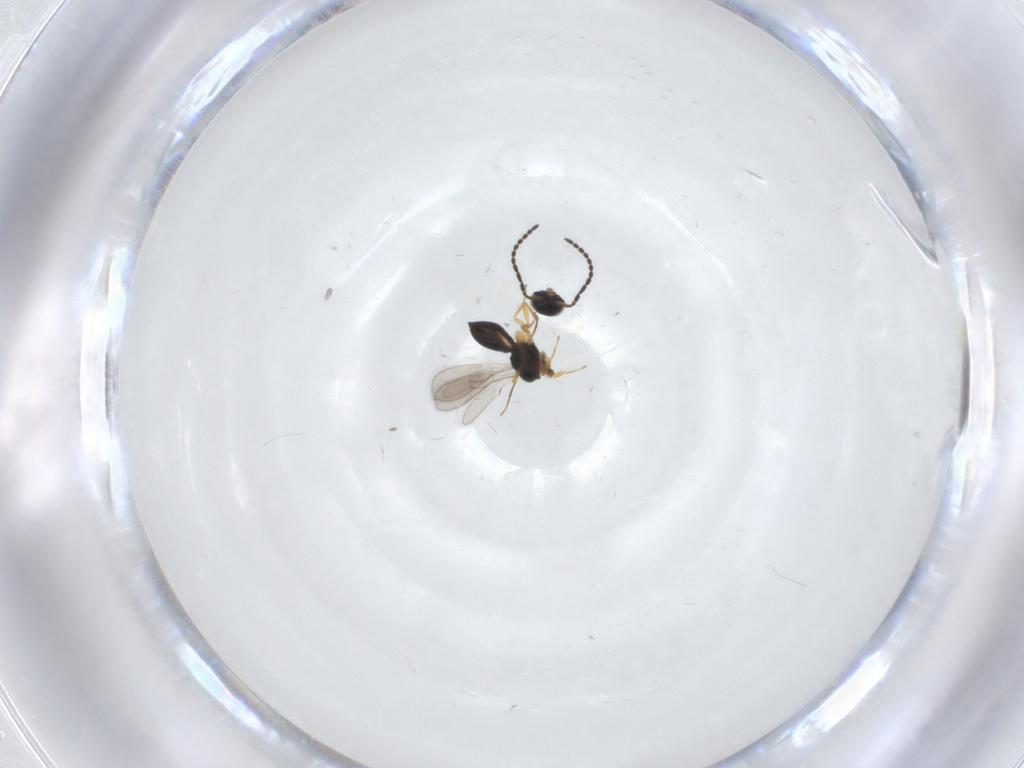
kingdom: Animalia
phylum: Arthropoda
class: Insecta
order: Hymenoptera
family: Scelionidae
